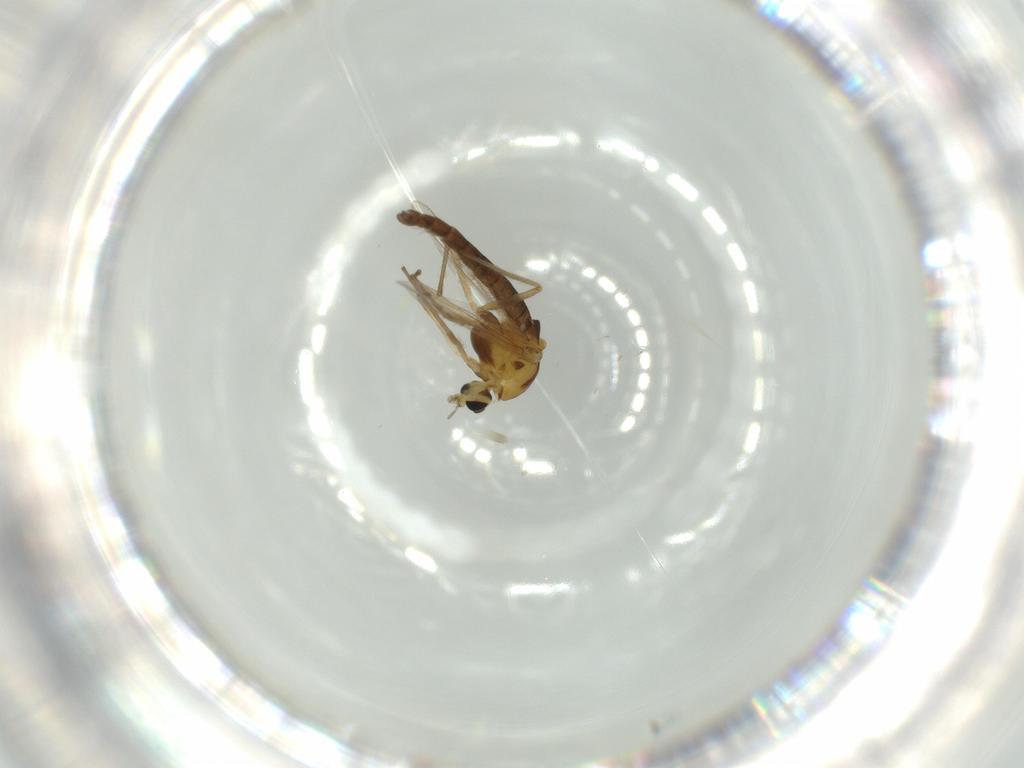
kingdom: Animalia
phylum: Arthropoda
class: Insecta
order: Diptera
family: Chironomidae
